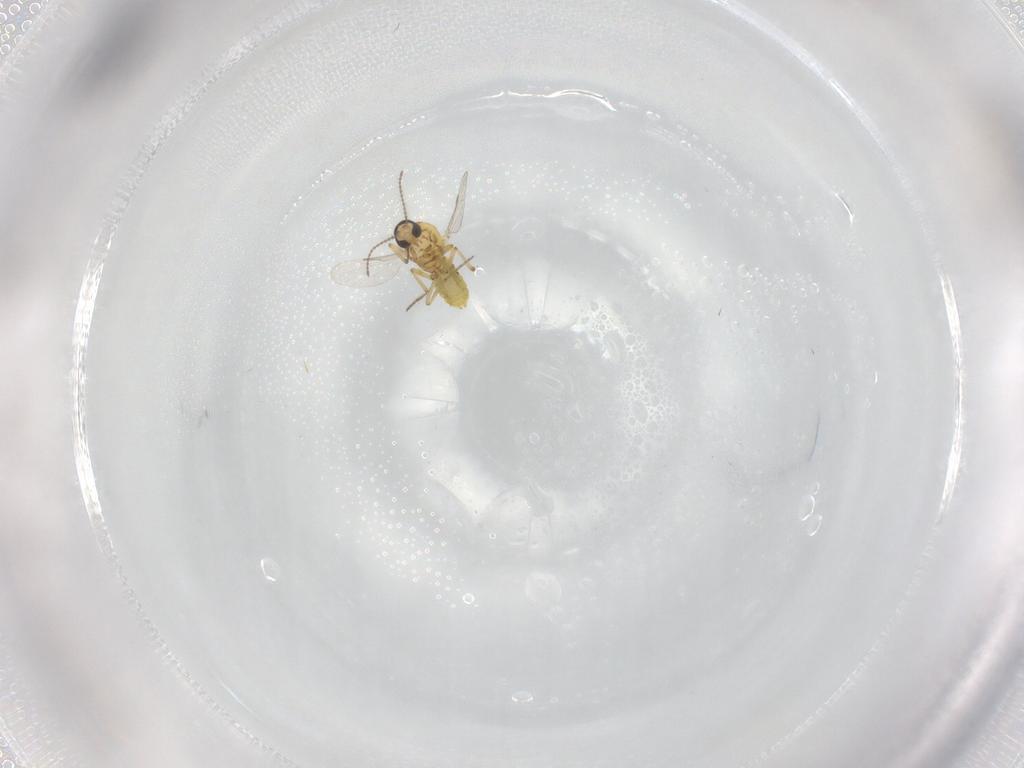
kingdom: Animalia
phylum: Arthropoda
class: Insecta
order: Diptera
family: Ceratopogonidae
